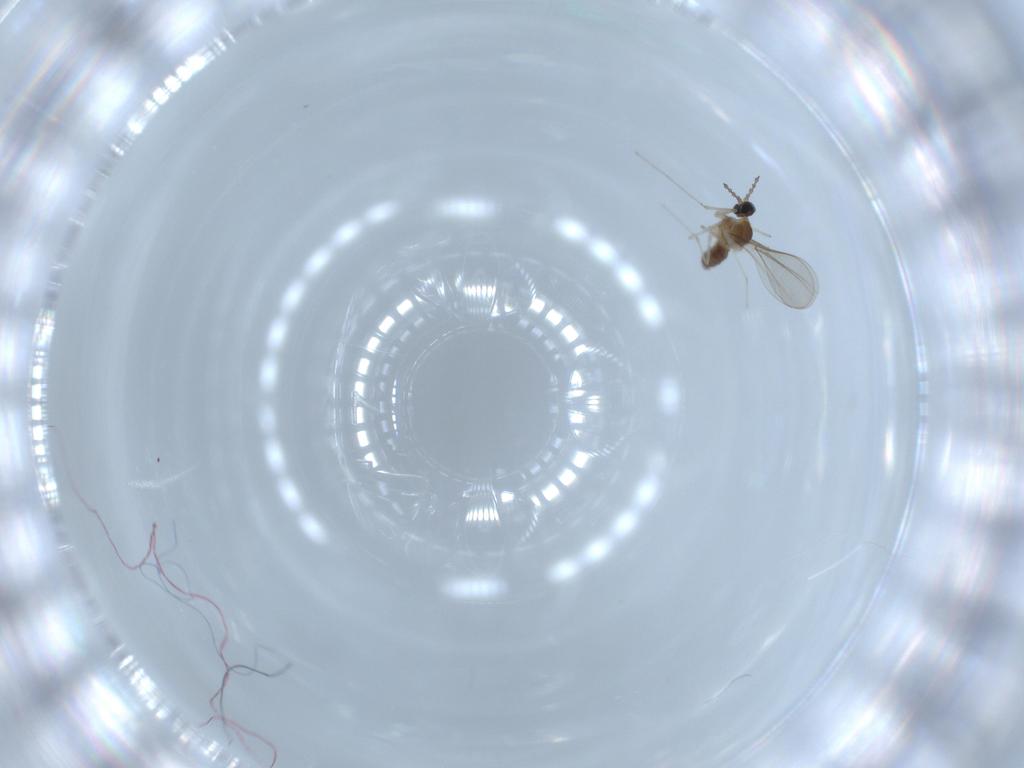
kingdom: Animalia
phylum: Arthropoda
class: Insecta
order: Diptera
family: Cecidomyiidae
